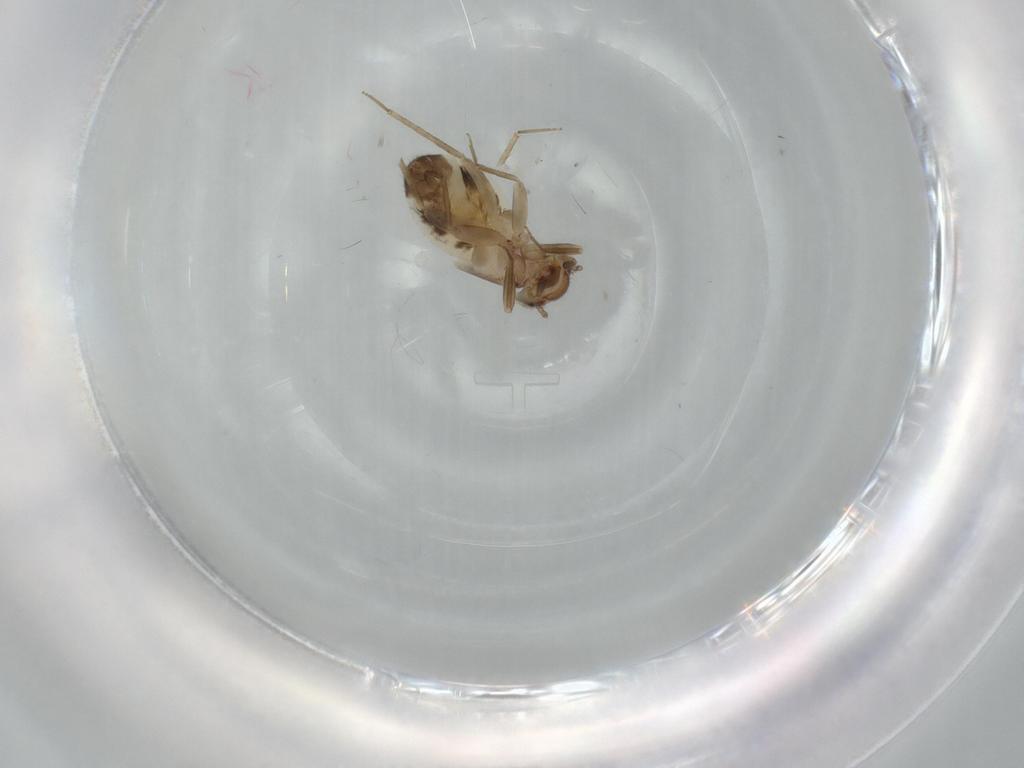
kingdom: Animalia
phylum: Arthropoda
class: Insecta
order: Psocodea
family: Ectopsocidae
